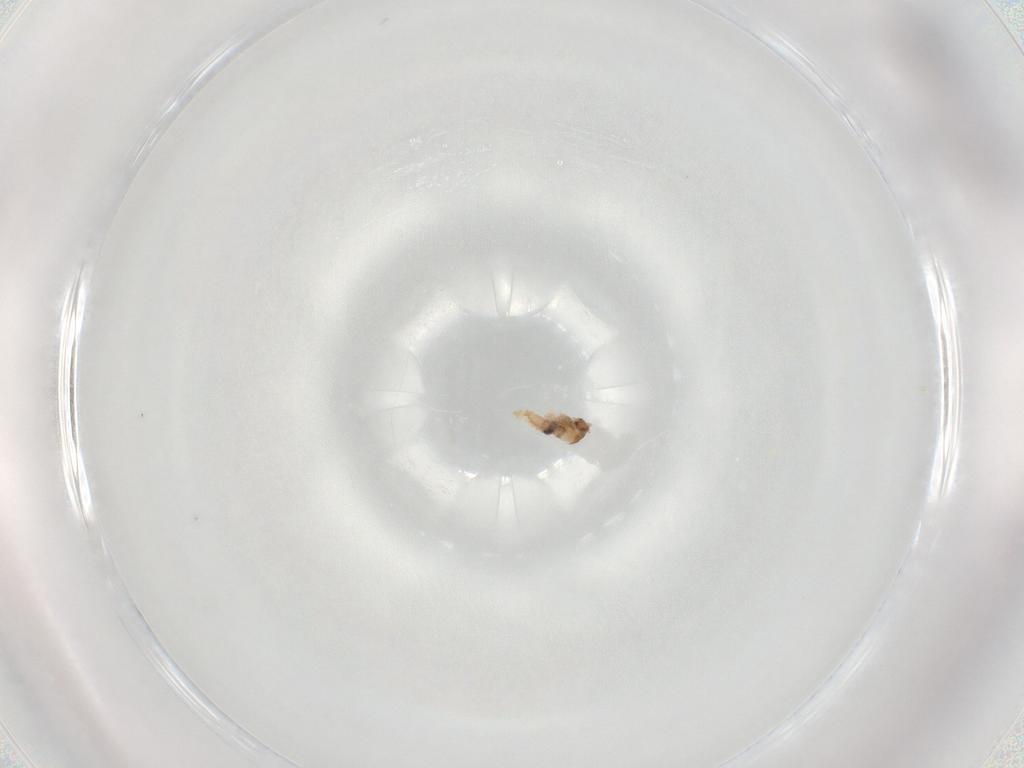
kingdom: Animalia
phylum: Arthropoda
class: Insecta
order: Diptera
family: Cecidomyiidae
